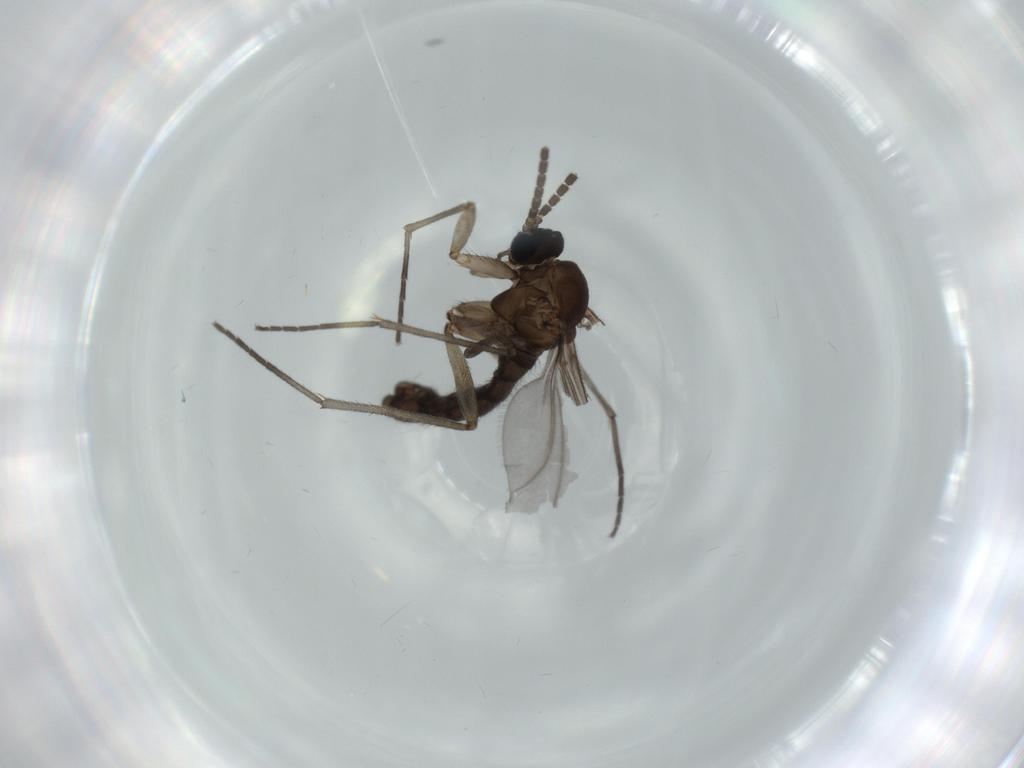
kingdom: Animalia
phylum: Arthropoda
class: Insecta
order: Diptera
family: Sciaridae
